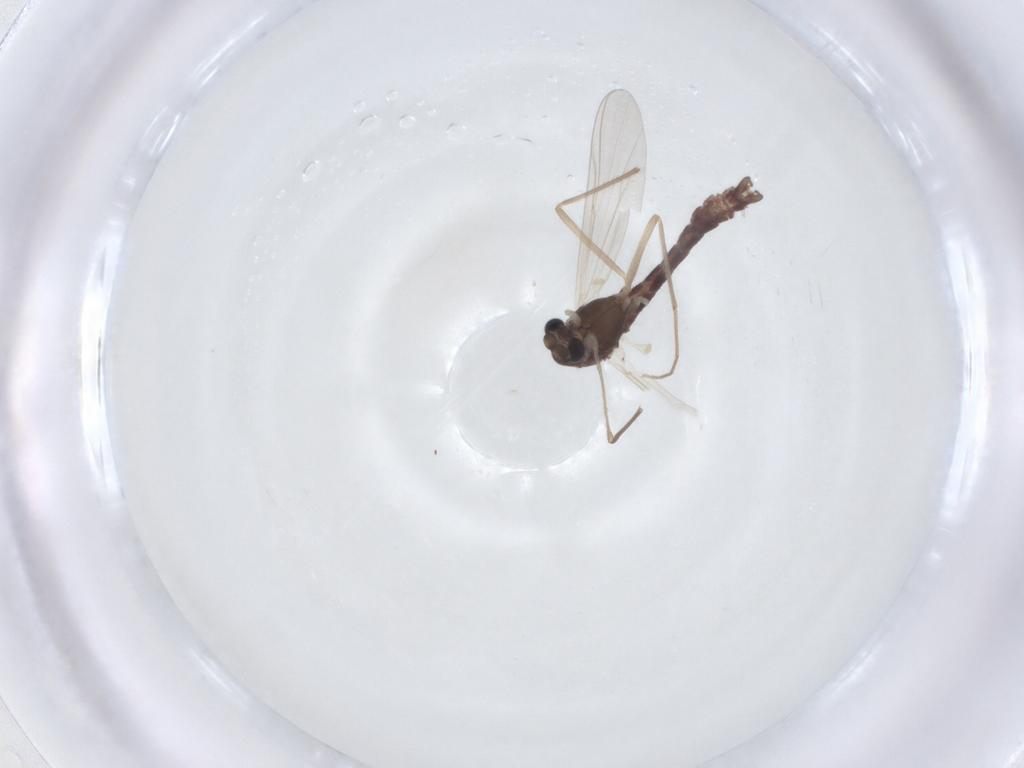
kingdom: Animalia
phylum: Arthropoda
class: Insecta
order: Diptera
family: Chironomidae
